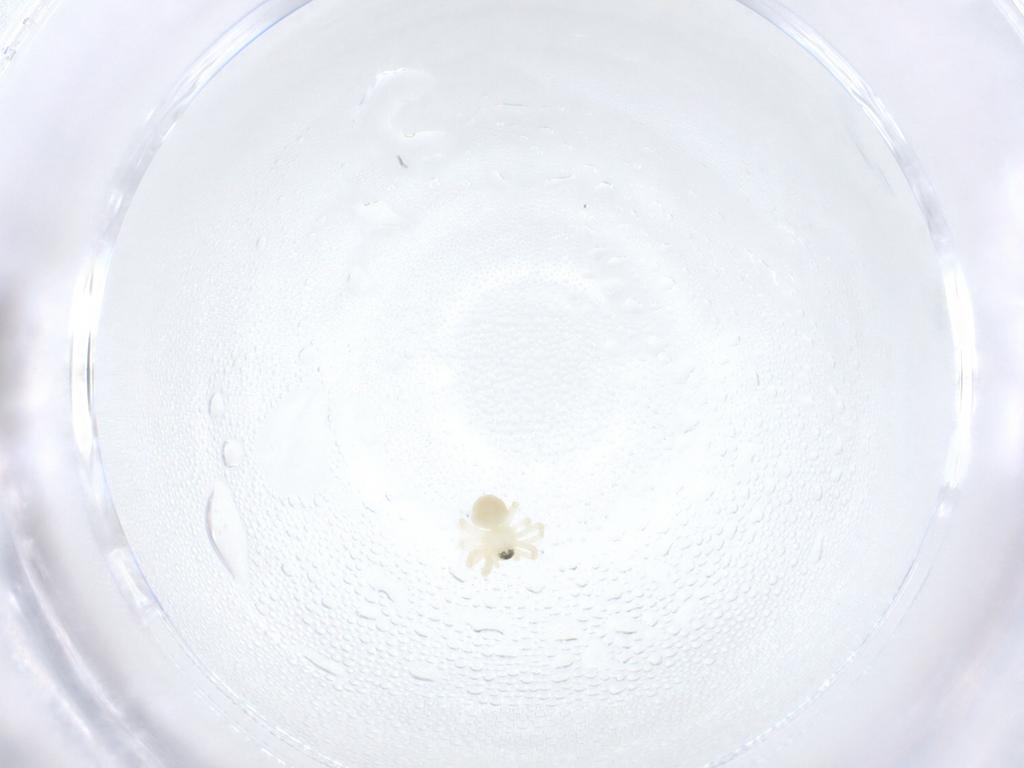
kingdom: Animalia
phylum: Arthropoda
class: Arachnida
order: Araneae
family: Linyphiidae
